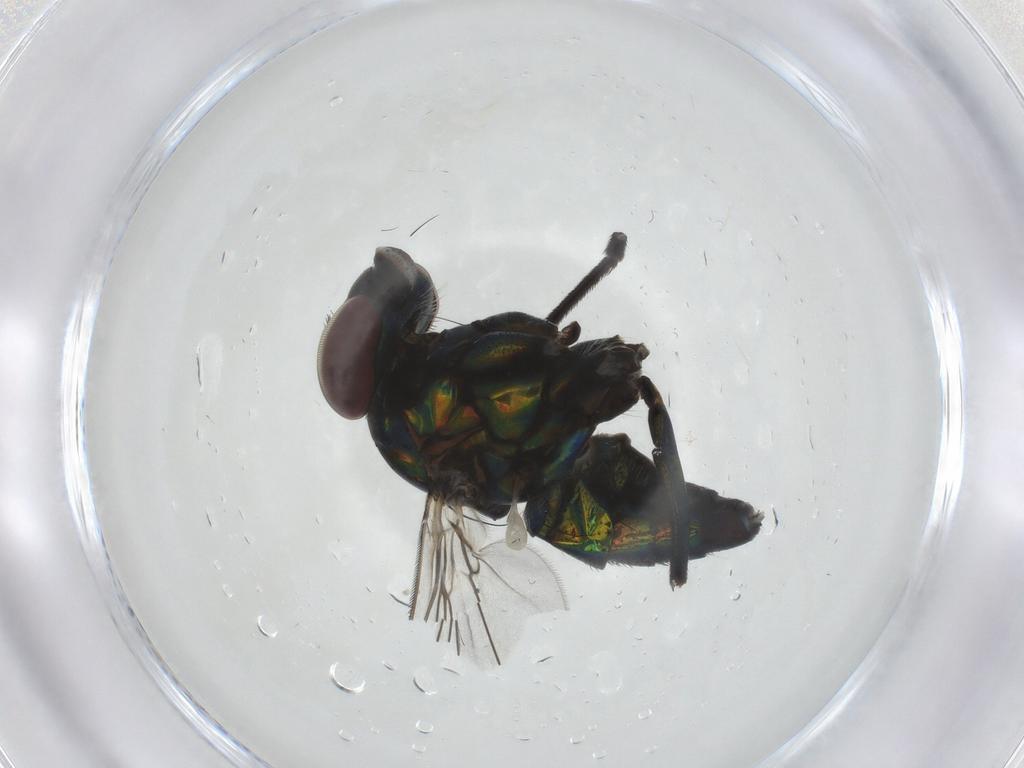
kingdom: Animalia
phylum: Arthropoda
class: Insecta
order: Diptera
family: Dolichopodidae
